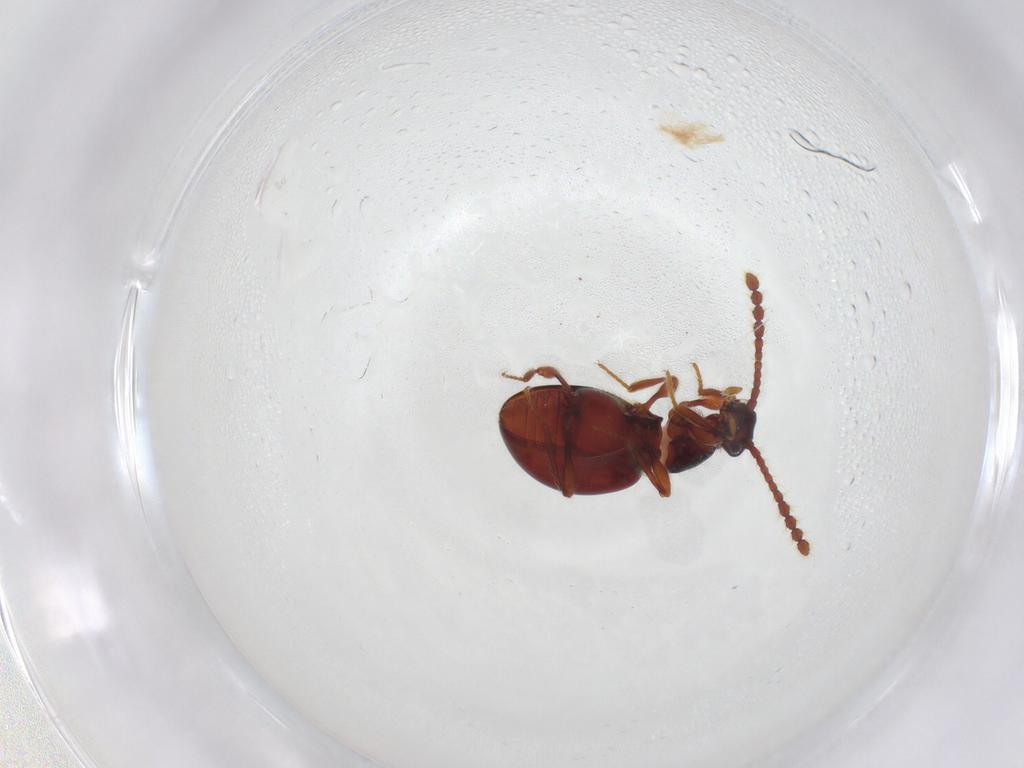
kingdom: Animalia
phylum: Arthropoda
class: Insecta
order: Coleoptera
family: Staphylinidae
